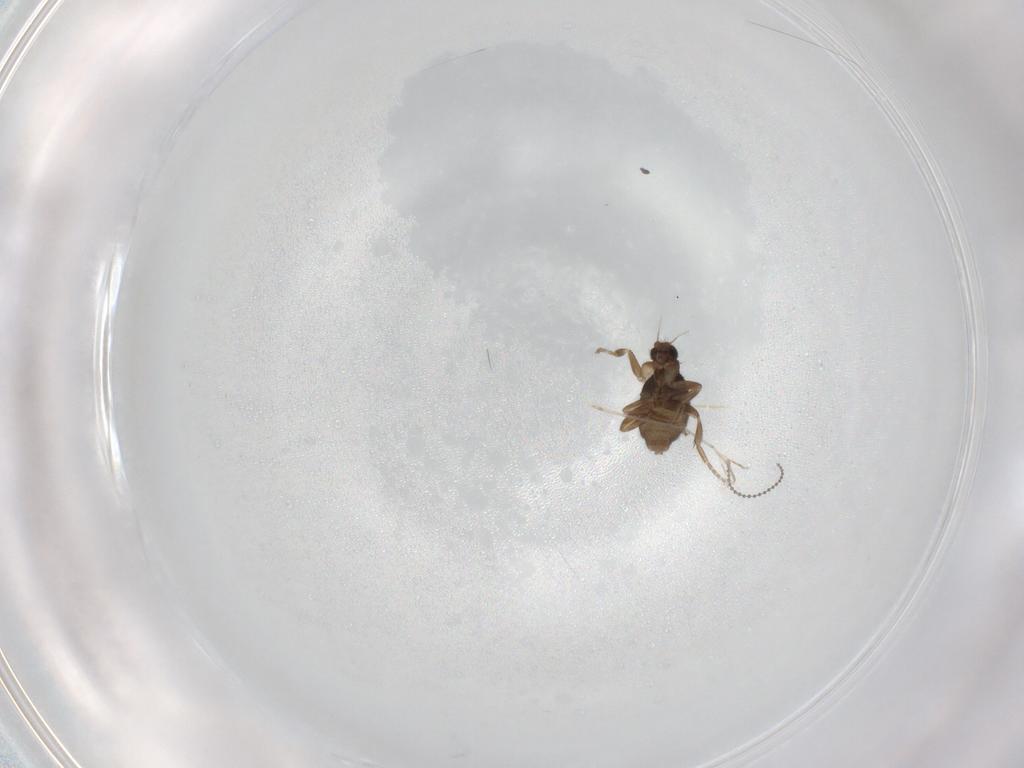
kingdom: Animalia
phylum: Arthropoda
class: Insecta
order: Diptera
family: Cecidomyiidae
